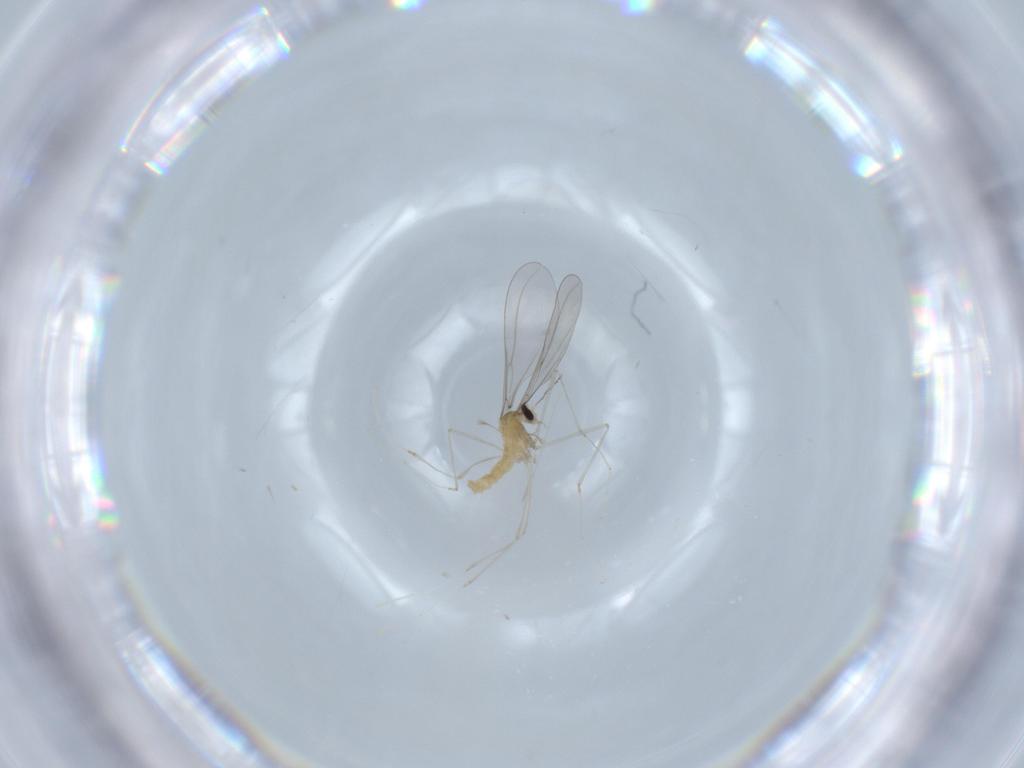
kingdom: Animalia
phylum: Arthropoda
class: Insecta
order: Diptera
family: Cecidomyiidae
